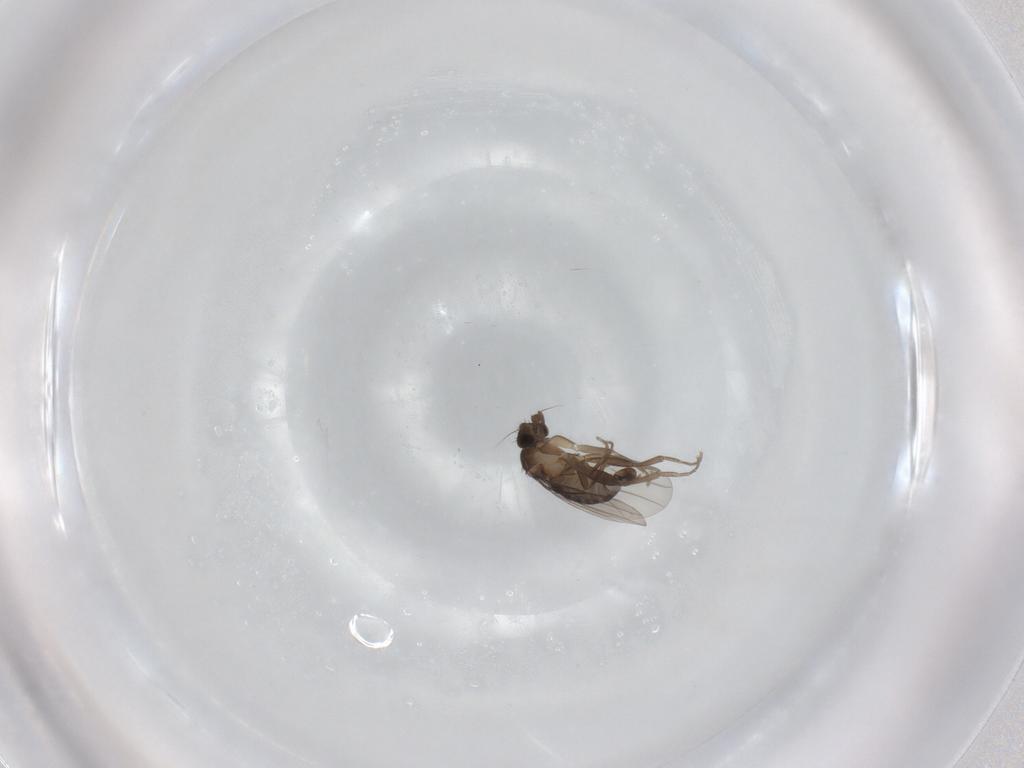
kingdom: Animalia
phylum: Arthropoda
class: Insecta
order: Diptera
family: Phoridae
